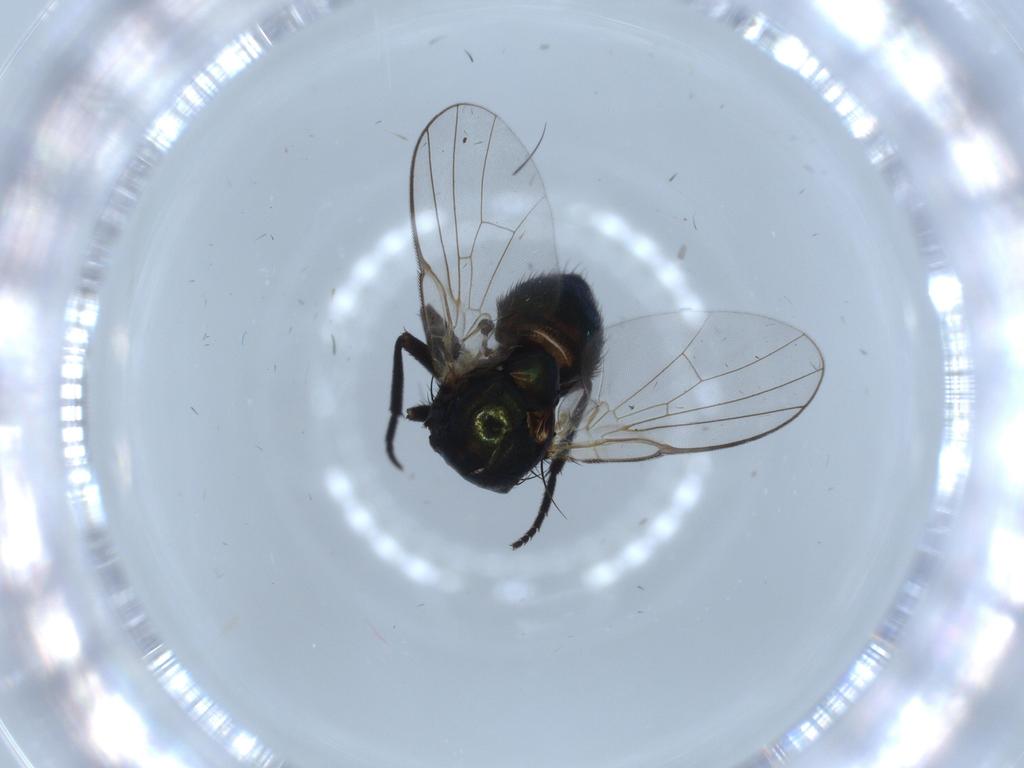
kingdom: Animalia
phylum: Arthropoda
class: Insecta
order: Diptera
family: Agromyzidae
